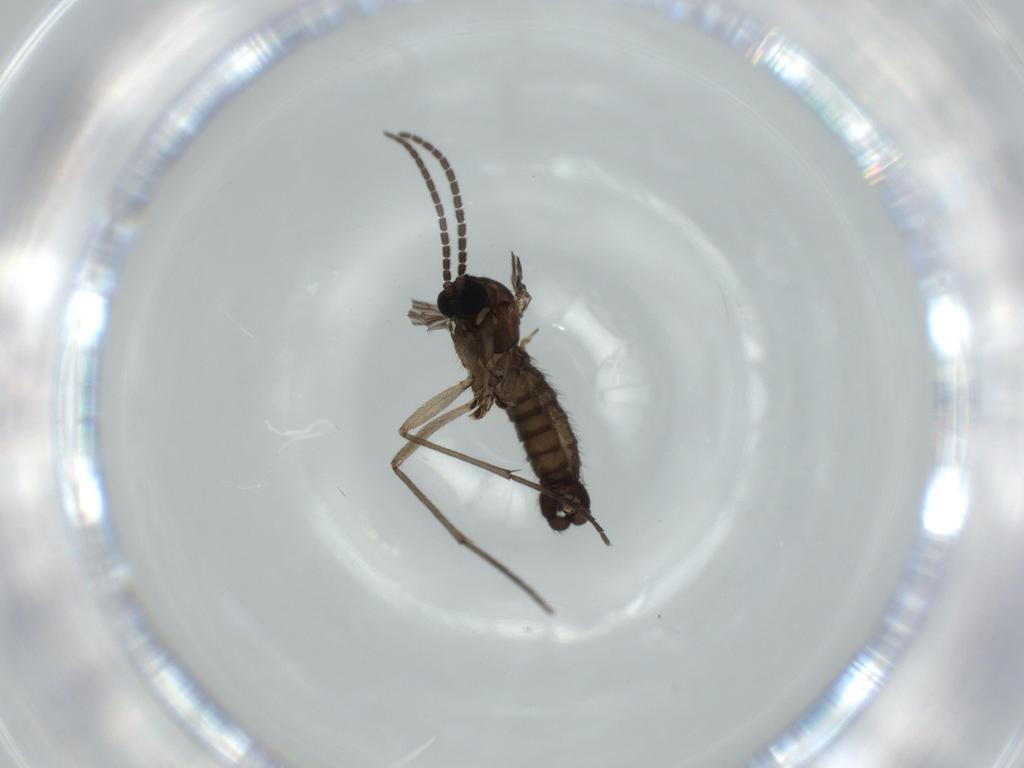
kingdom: Animalia
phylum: Arthropoda
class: Insecta
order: Diptera
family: Sciaridae
